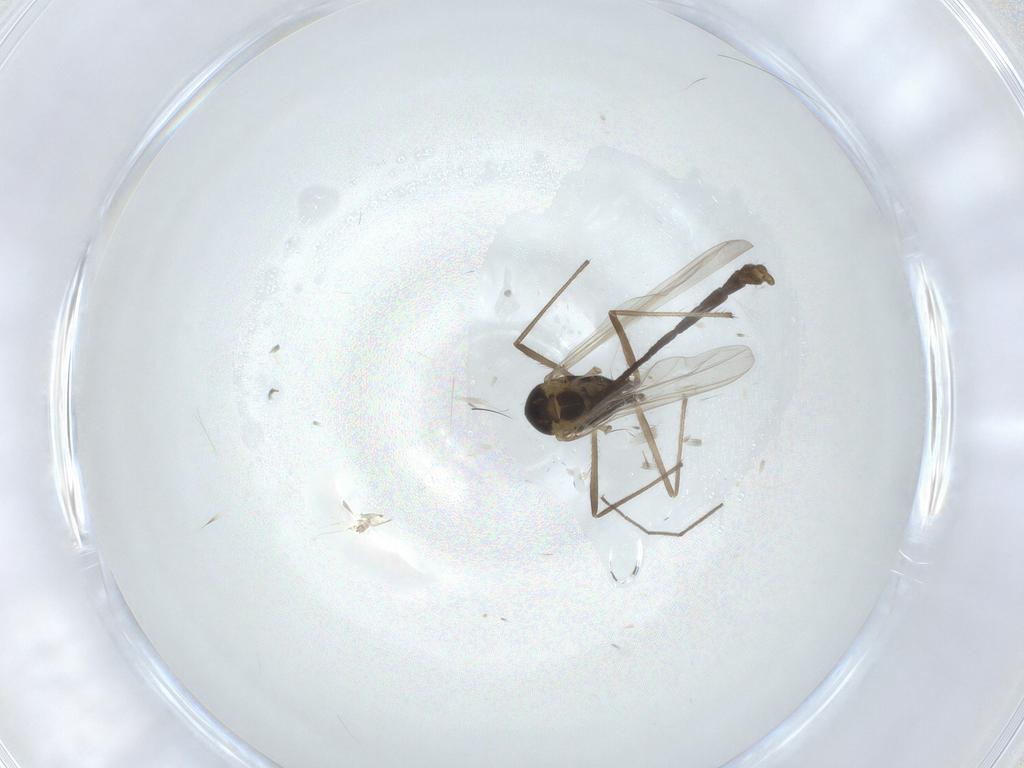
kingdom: Animalia
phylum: Arthropoda
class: Insecta
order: Diptera
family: Chironomidae
